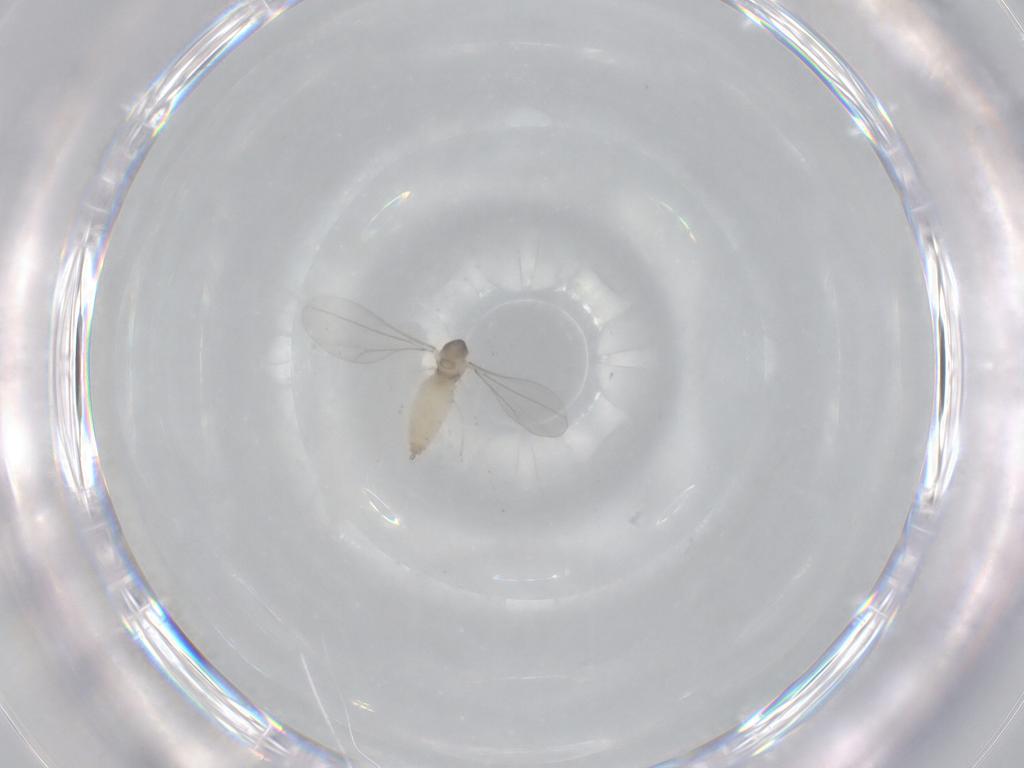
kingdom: Animalia
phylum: Arthropoda
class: Insecta
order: Diptera
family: Cecidomyiidae
